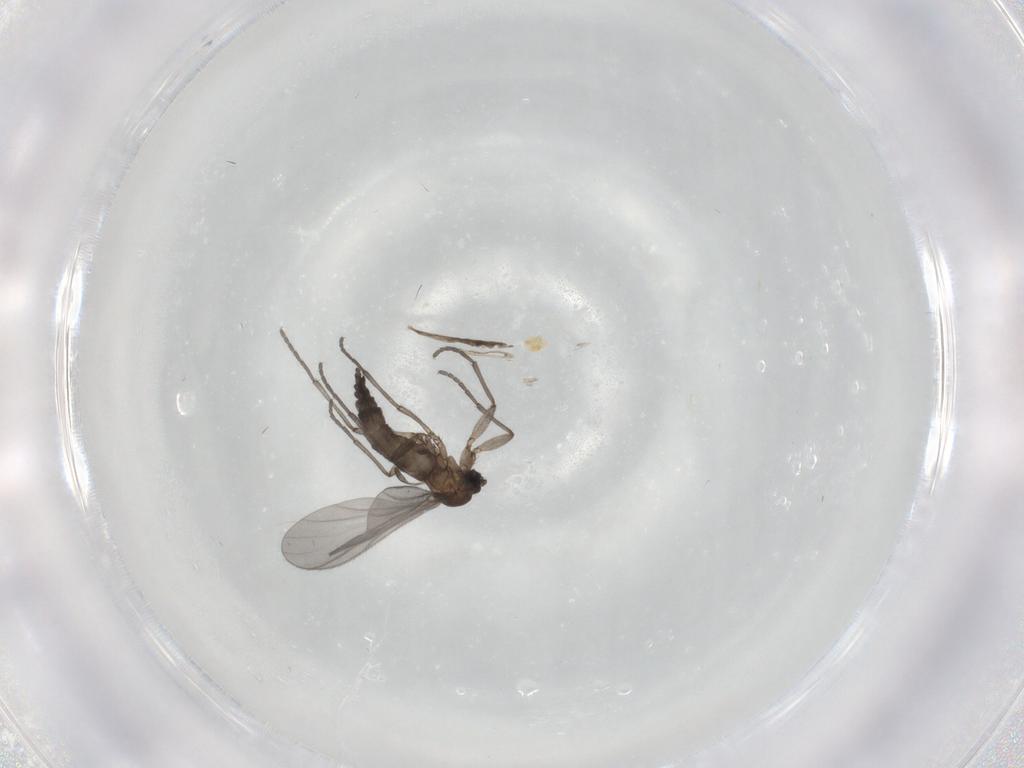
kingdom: Animalia
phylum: Arthropoda
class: Insecta
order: Diptera
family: Sciaridae
